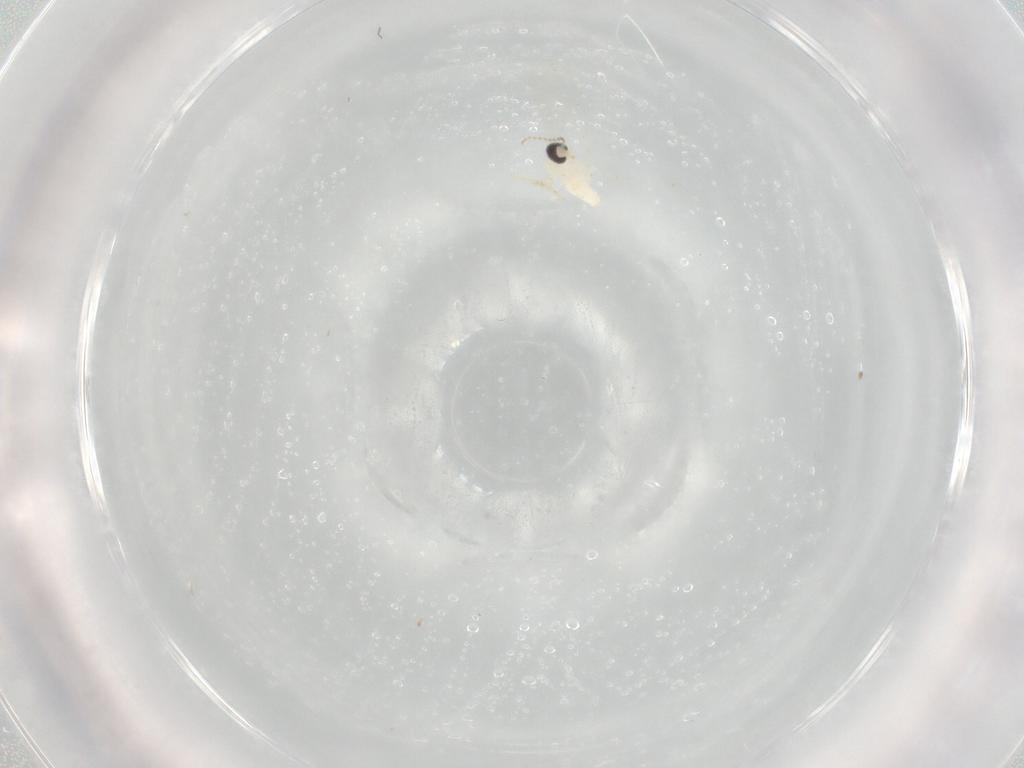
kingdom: Animalia
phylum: Arthropoda
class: Insecta
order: Diptera
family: Cecidomyiidae
